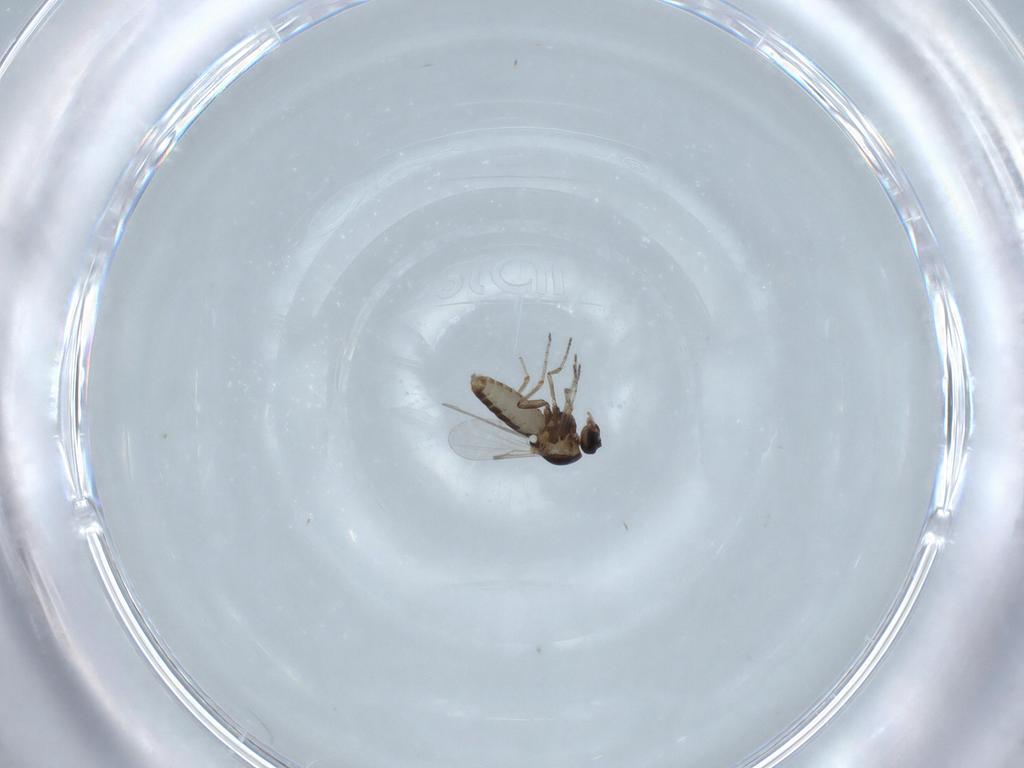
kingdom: Animalia
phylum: Arthropoda
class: Insecta
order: Diptera
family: Ceratopogonidae
